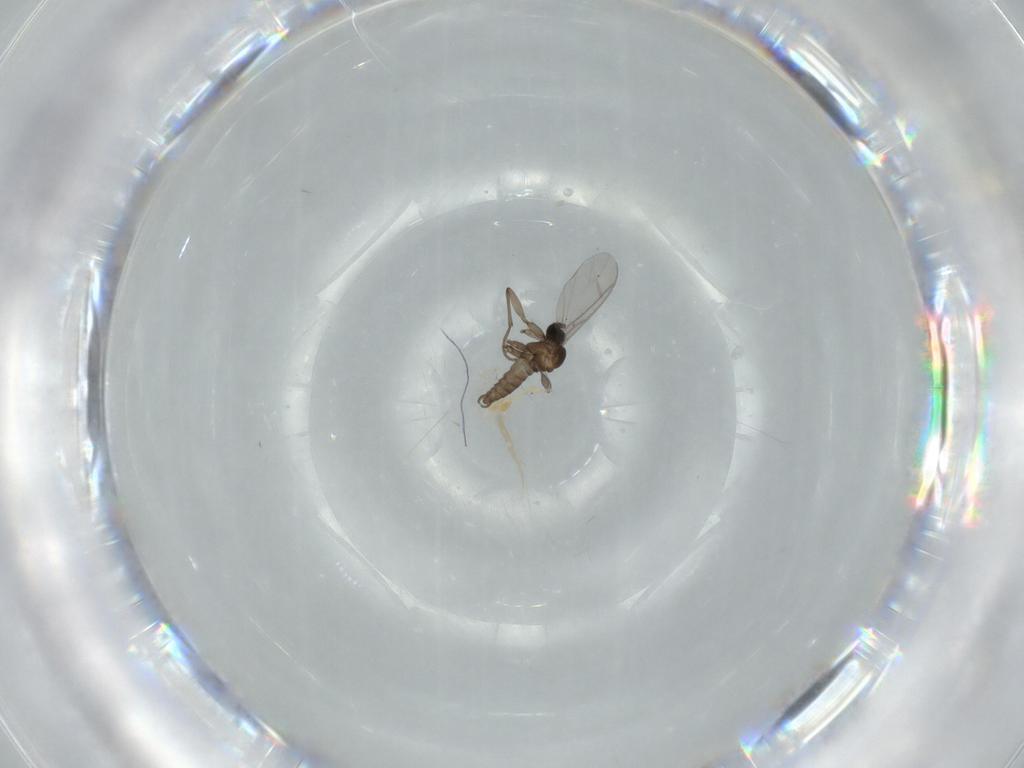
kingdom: Animalia
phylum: Arthropoda
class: Insecta
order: Diptera
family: Sciaridae
